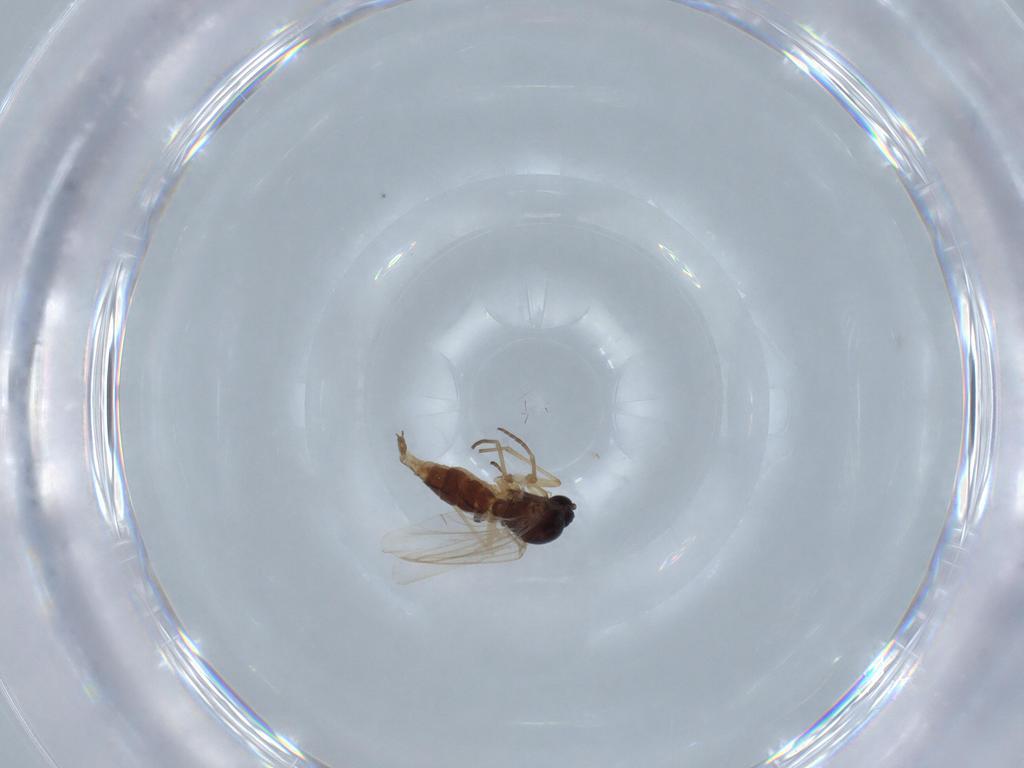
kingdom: Animalia
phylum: Arthropoda
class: Insecta
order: Diptera
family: Sciaridae
